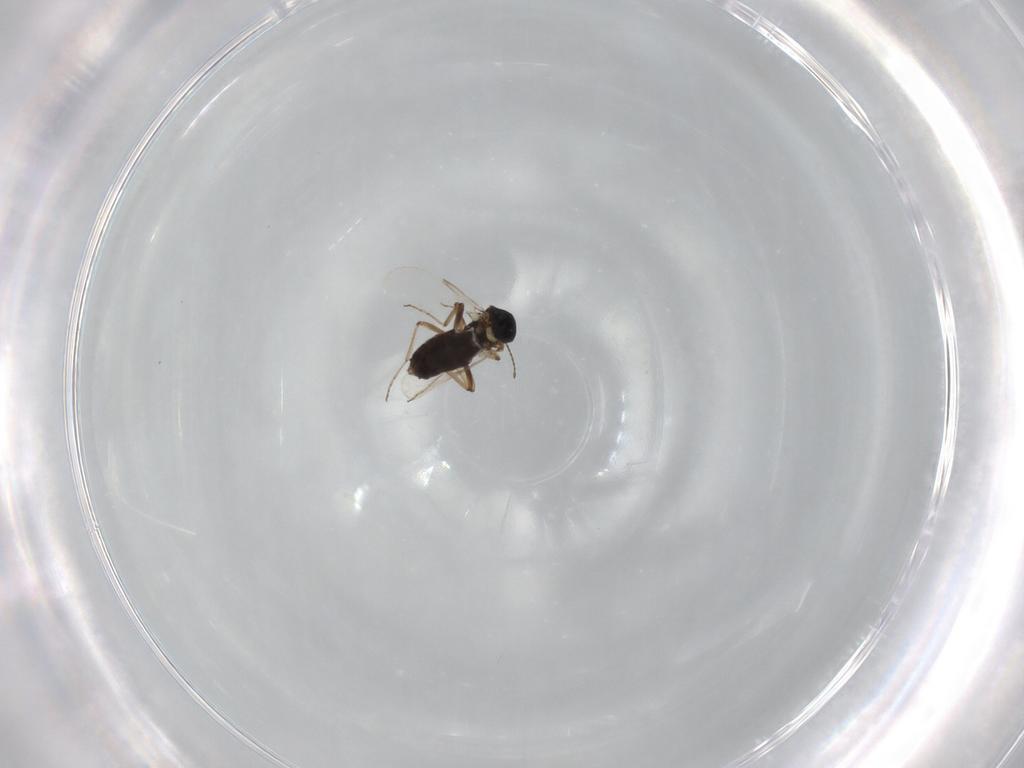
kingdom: Animalia
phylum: Arthropoda
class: Insecta
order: Diptera
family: Ceratopogonidae
